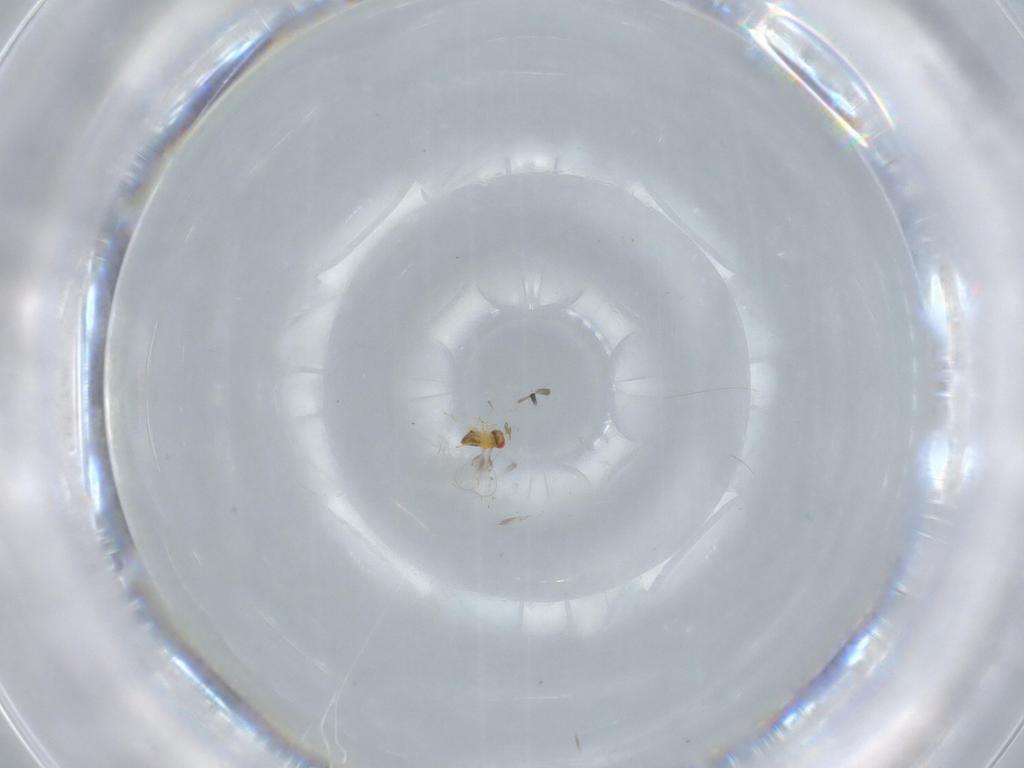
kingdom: Animalia
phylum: Arthropoda
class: Insecta
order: Hymenoptera
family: Trichogrammatidae
